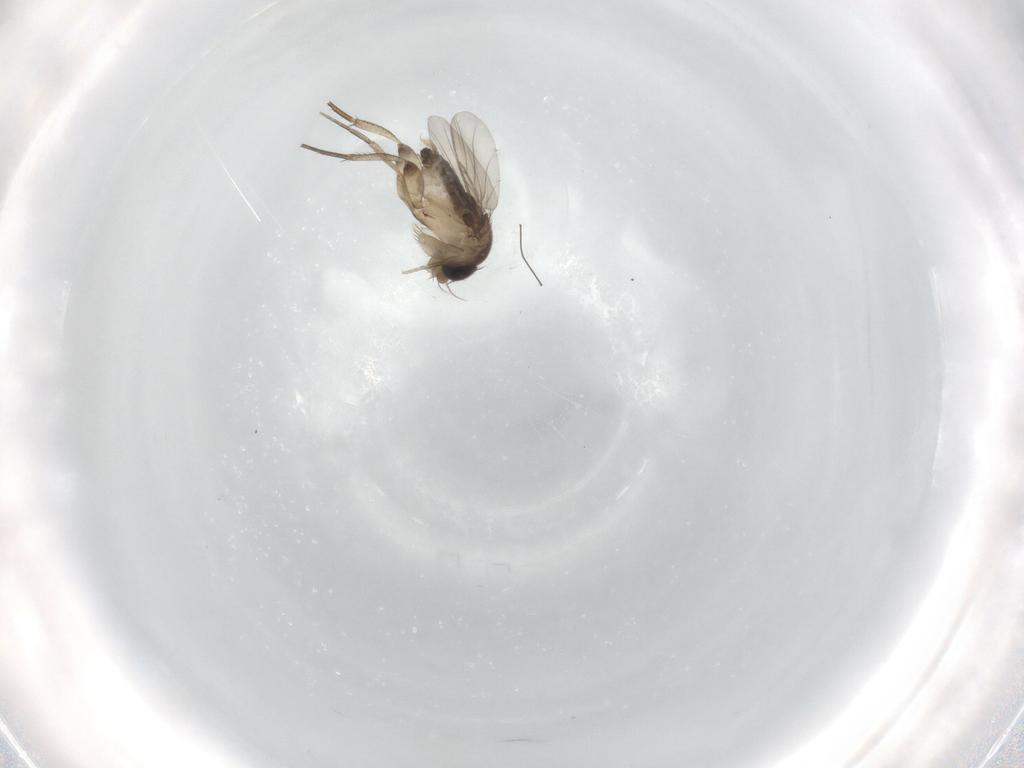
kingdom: Animalia
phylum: Arthropoda
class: Insecta
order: Diptera
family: Phoridae
